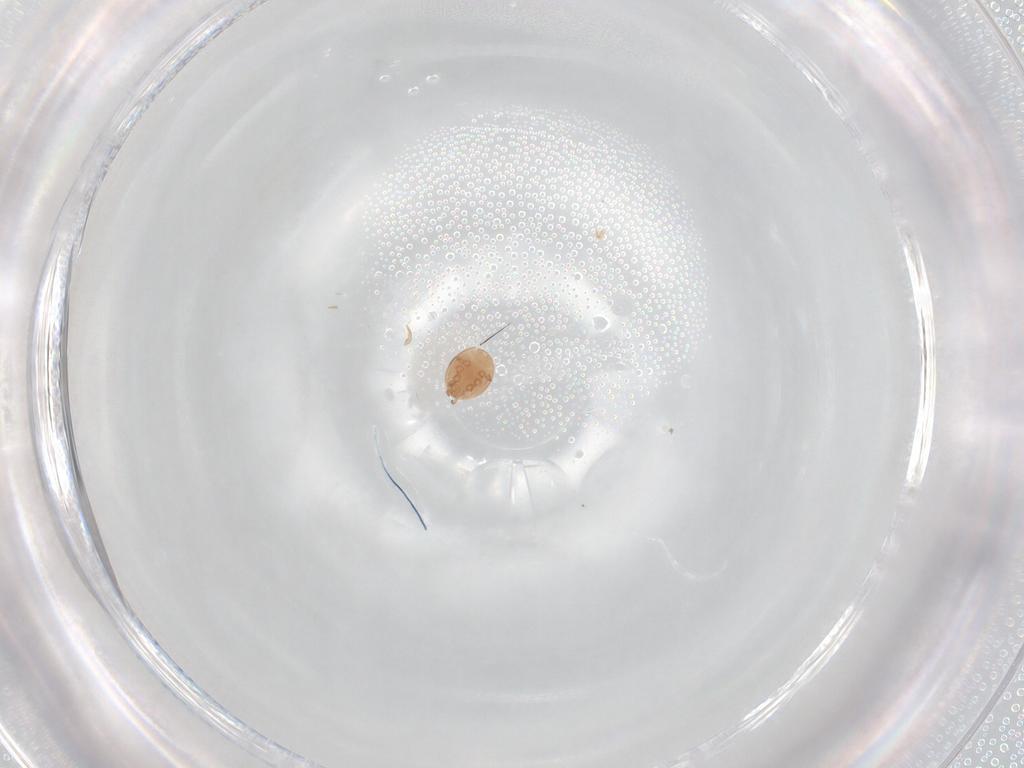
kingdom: Animalia
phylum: Arthropoda
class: Arachnida
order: Mesostigmata
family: Trematuridae
